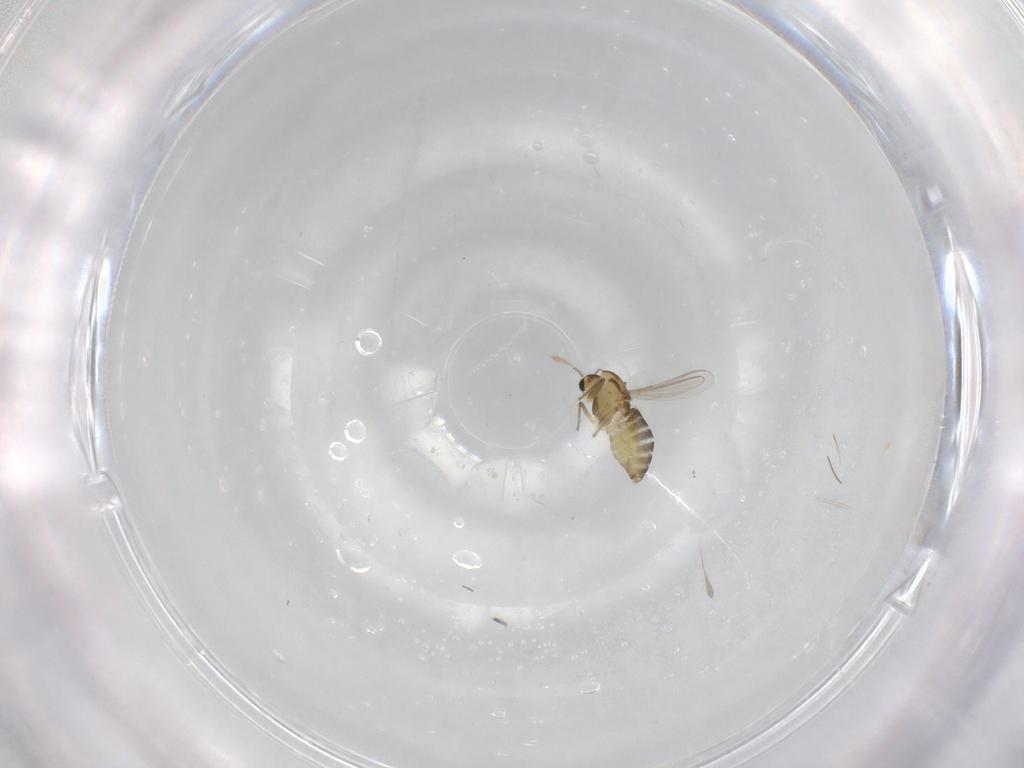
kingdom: Animalia
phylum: Arthropoda
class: Insecta
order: Diptera
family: Chironomidae
